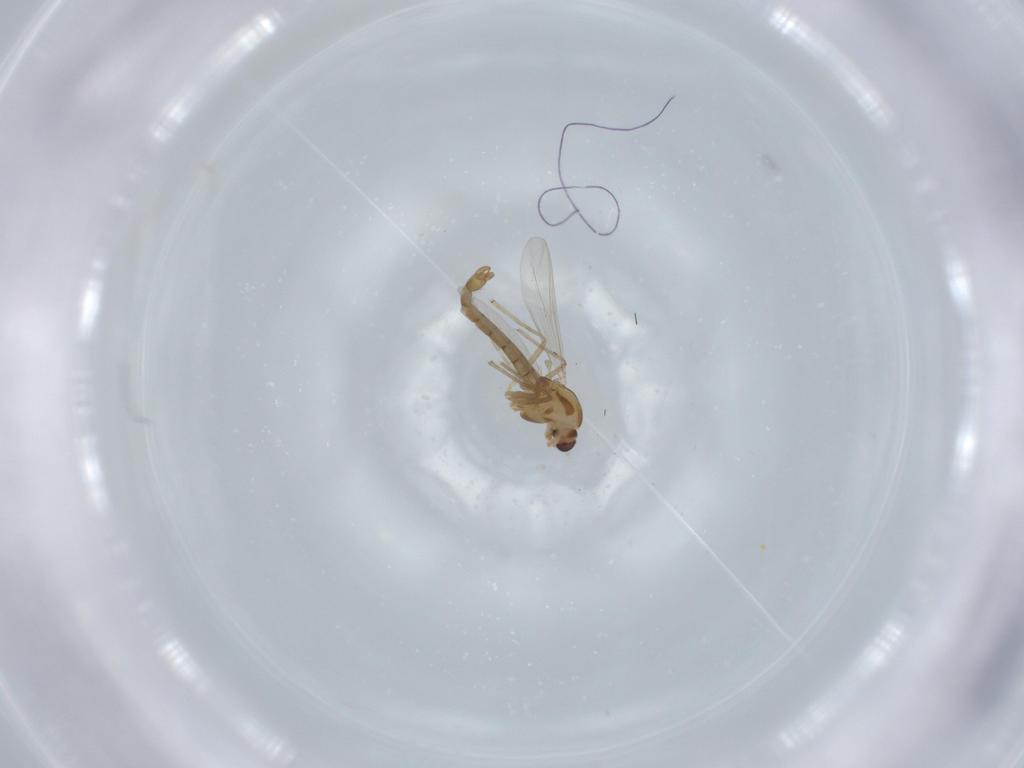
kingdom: Animalia
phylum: Arthropoda
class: Insecta
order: Diptera
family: Chironomidae
